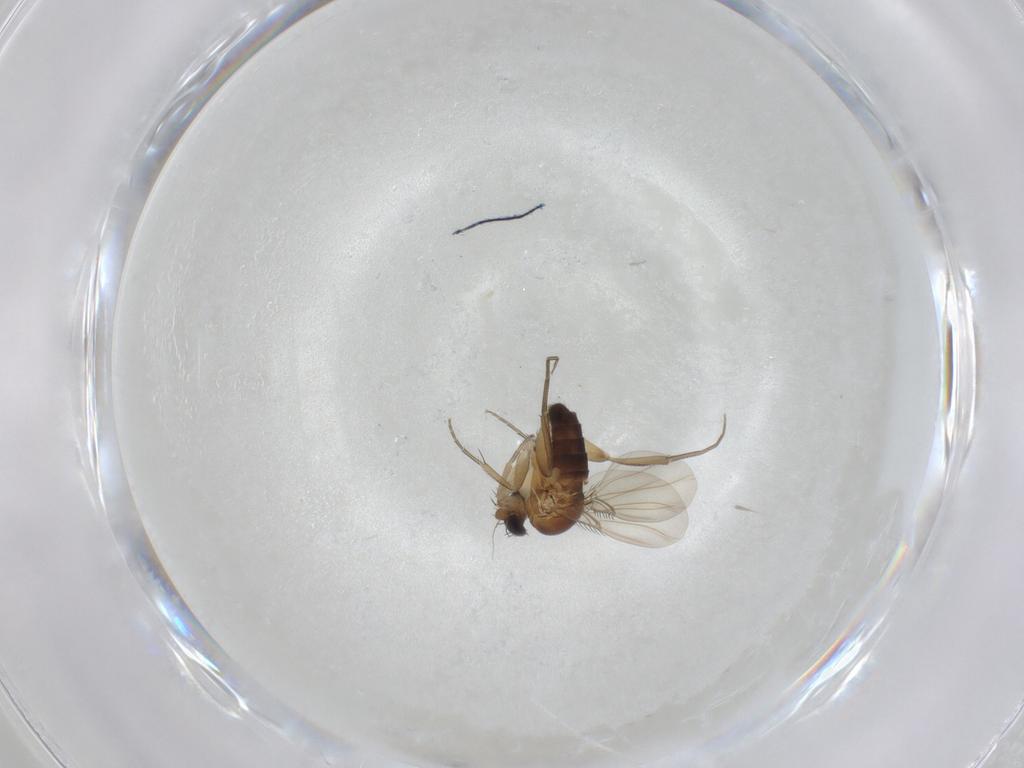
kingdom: Animalia
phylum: Arthropoda
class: Insecta
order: Diptera
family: Phoridae
